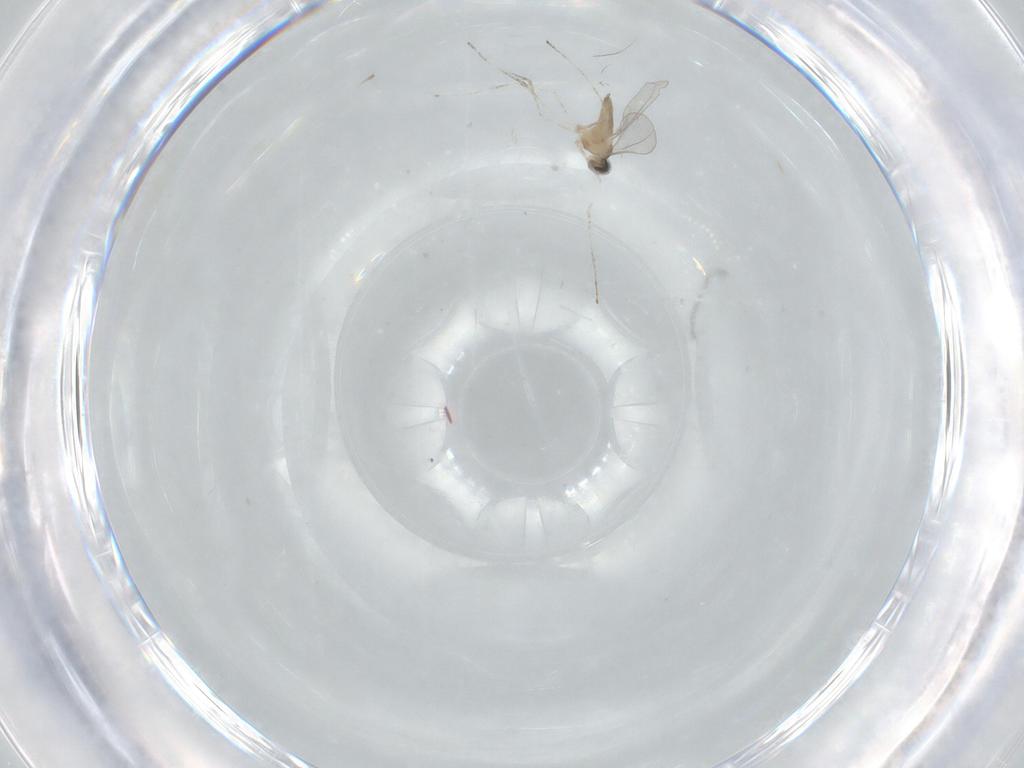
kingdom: Animalia
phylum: Arthropoda
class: Insecta
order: Diptera
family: Cecidomyiidae
